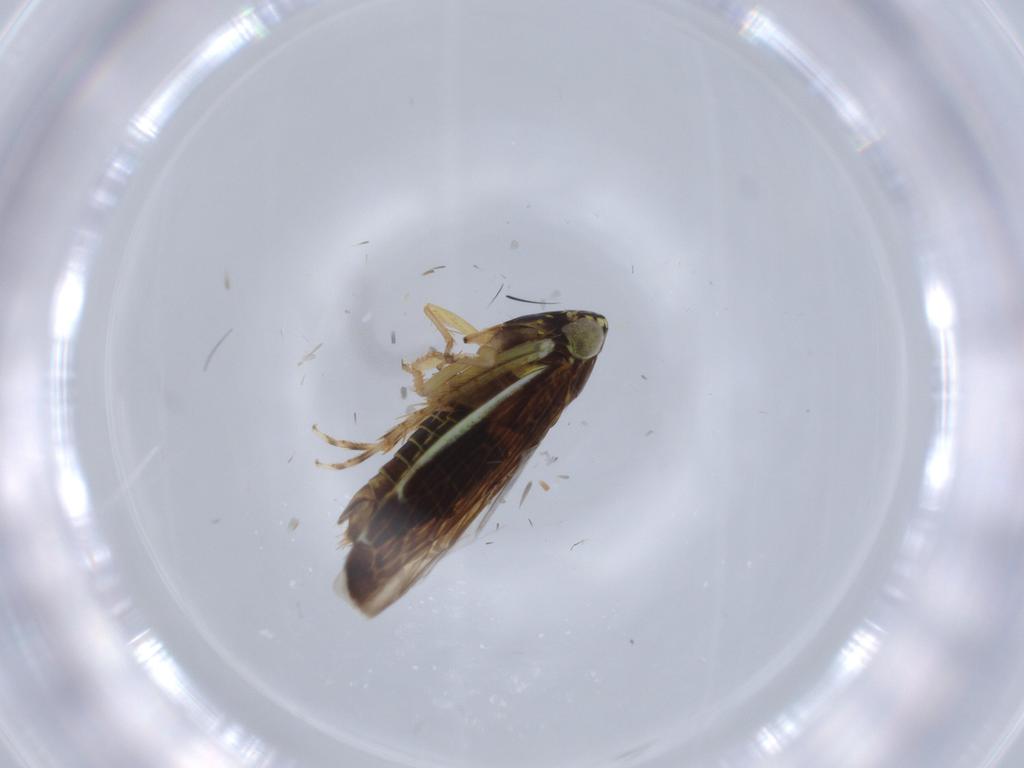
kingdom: Animalia
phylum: Arthropoda
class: Insecta
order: Hemiptera
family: Cicadellidae
